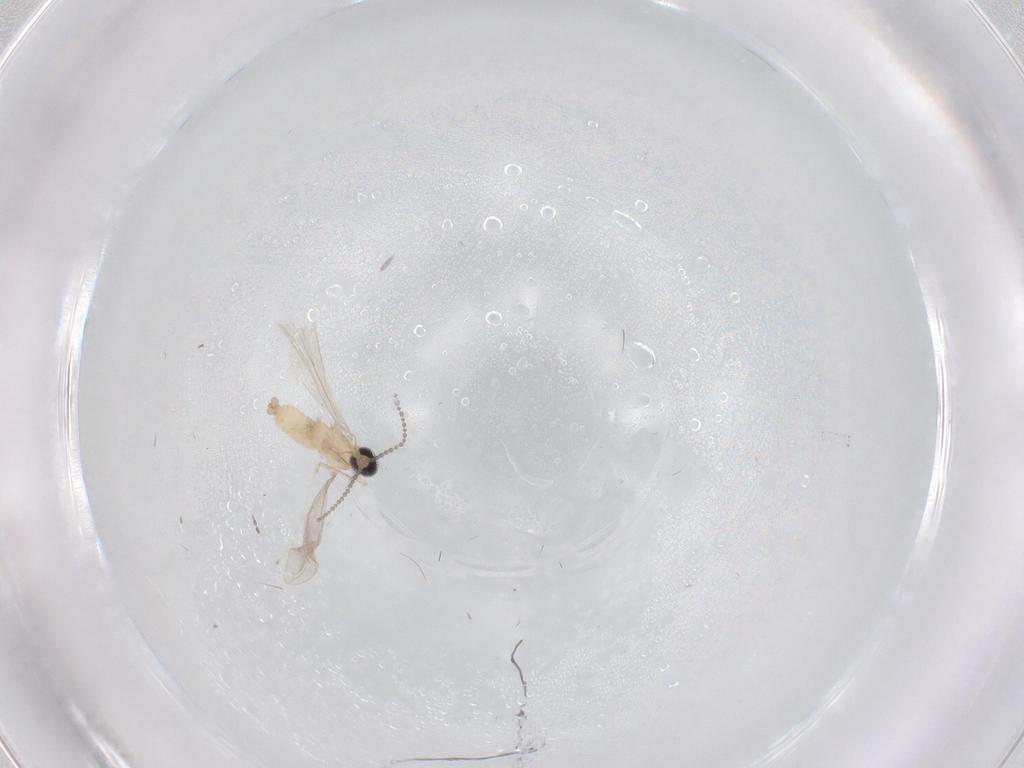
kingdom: Animalia
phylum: Arthropoda
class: Insecta
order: Diptera
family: Cecidomyiidae
